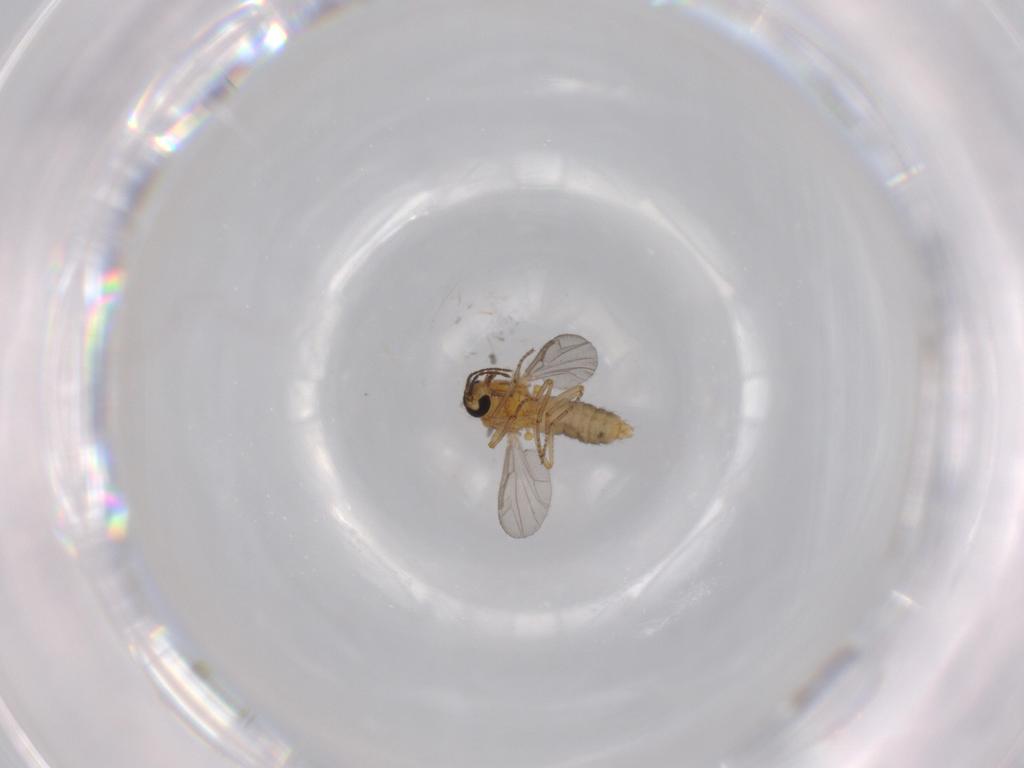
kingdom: Animalia
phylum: Arthropoda
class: Insecta
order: Diptera
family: Ceratopogonidae
